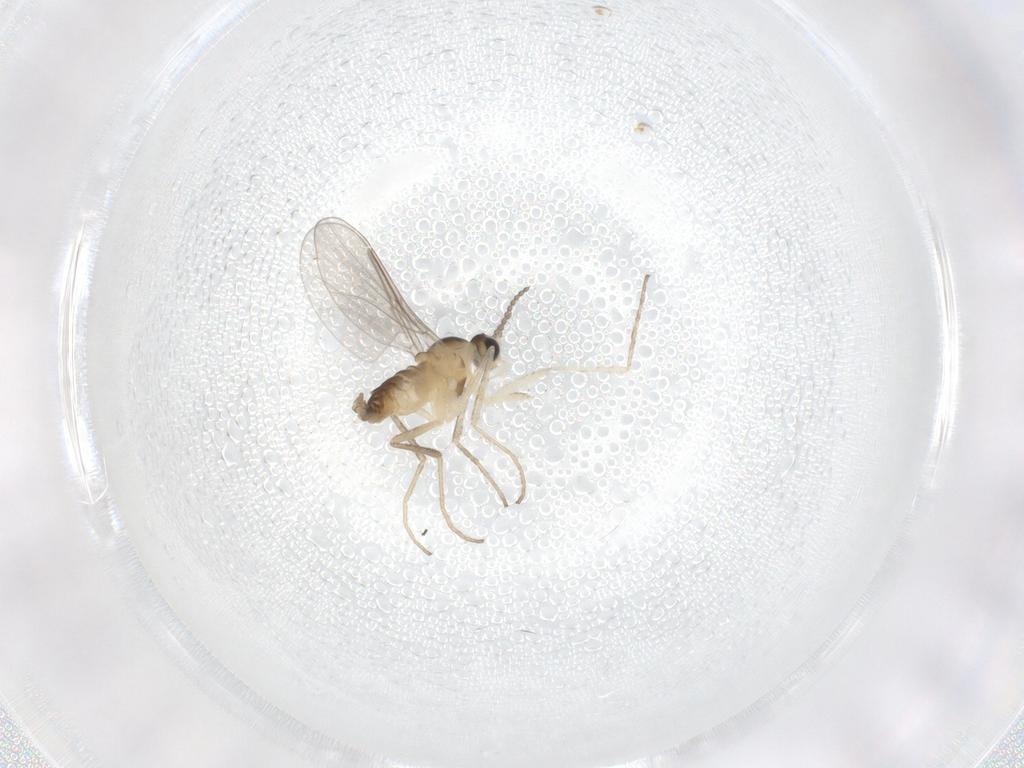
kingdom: Animalia
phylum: Arthropoda
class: Insecta
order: Diptera
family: Cecidomyiidae
